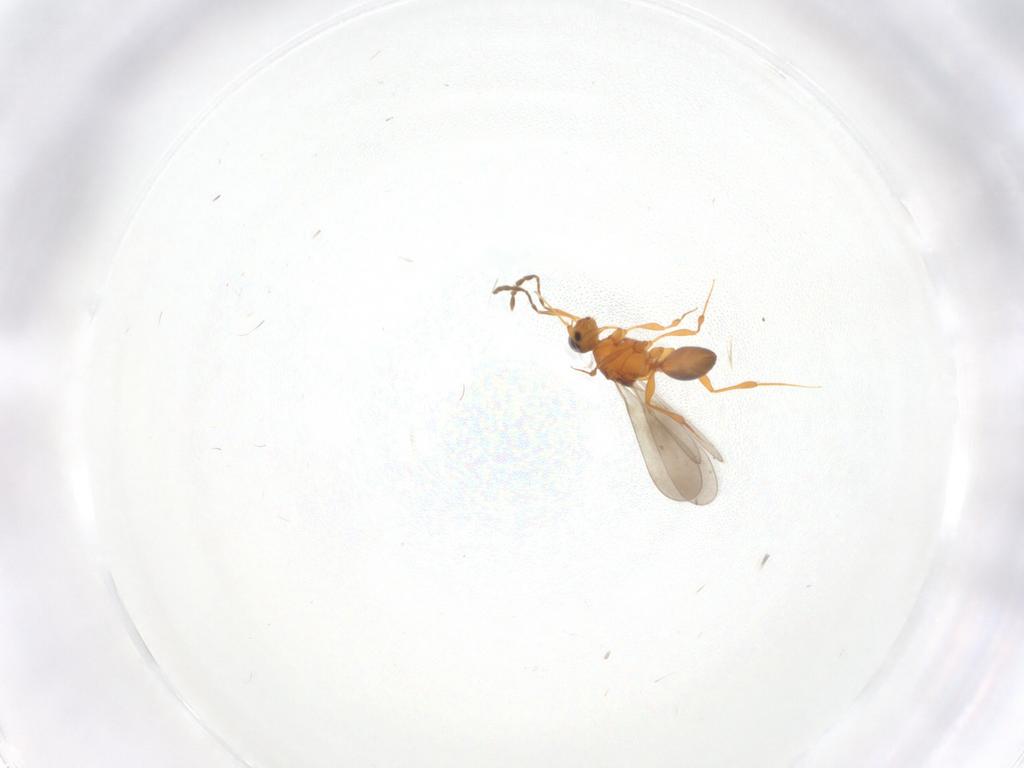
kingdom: Animalia
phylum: Arthropoda
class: Insecta
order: Hymenoptera
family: Platygastridae
